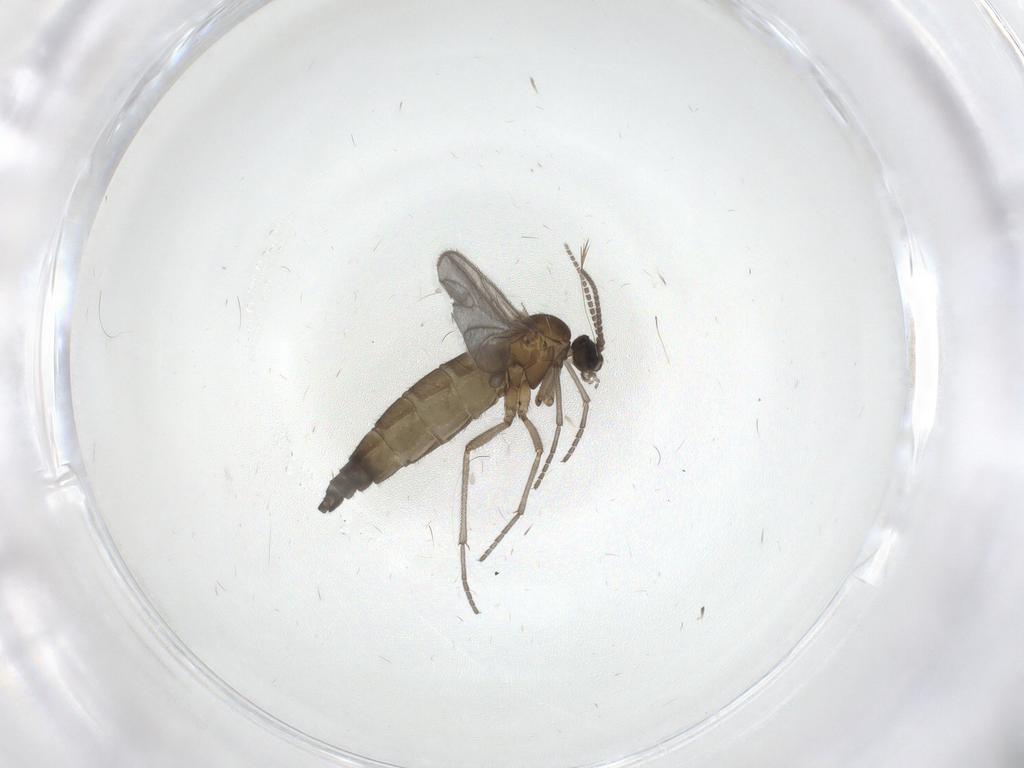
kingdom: Animalia
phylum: Arthropoda
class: Insecta
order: Diptera
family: Sciaridae
